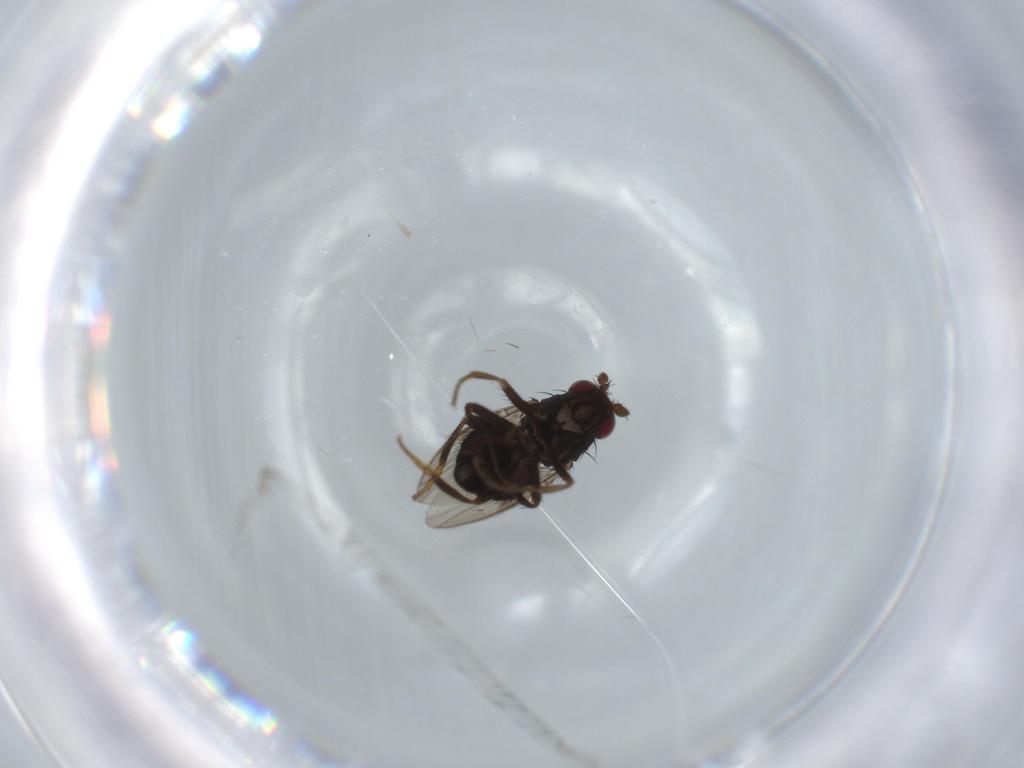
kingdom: Animalia
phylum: Arthropoda
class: Insecta
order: Diptera
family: Sphaeroceridae
